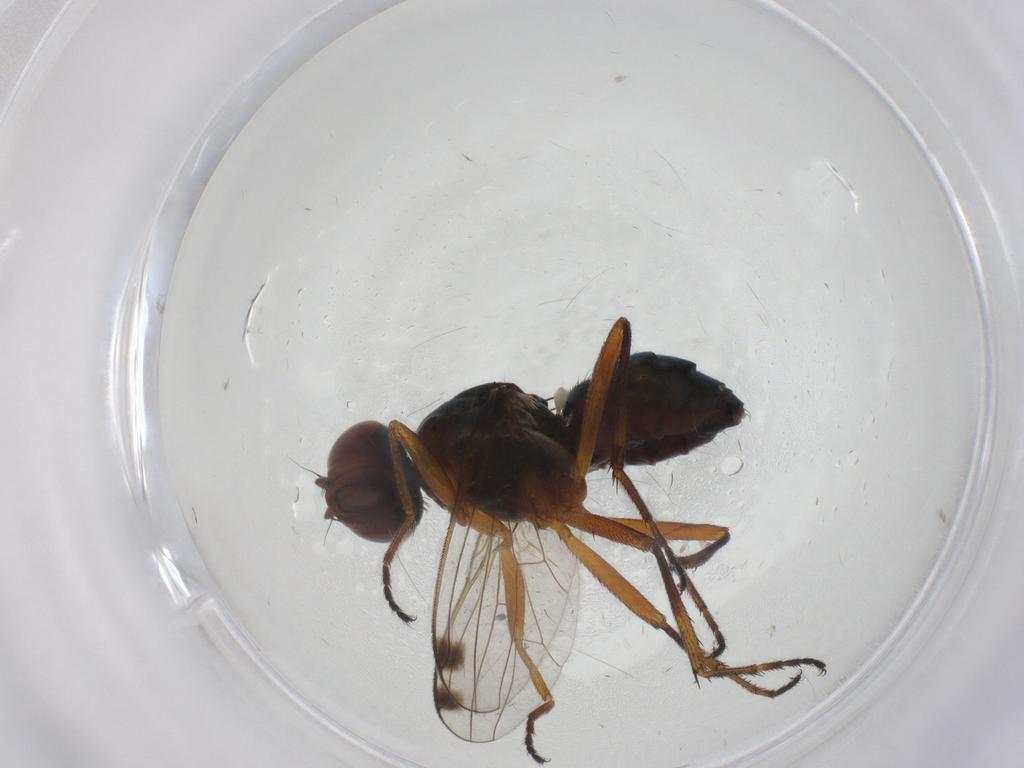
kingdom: Animalia
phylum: Arthropoda
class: Insecta
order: Diptera
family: Sepsidae
